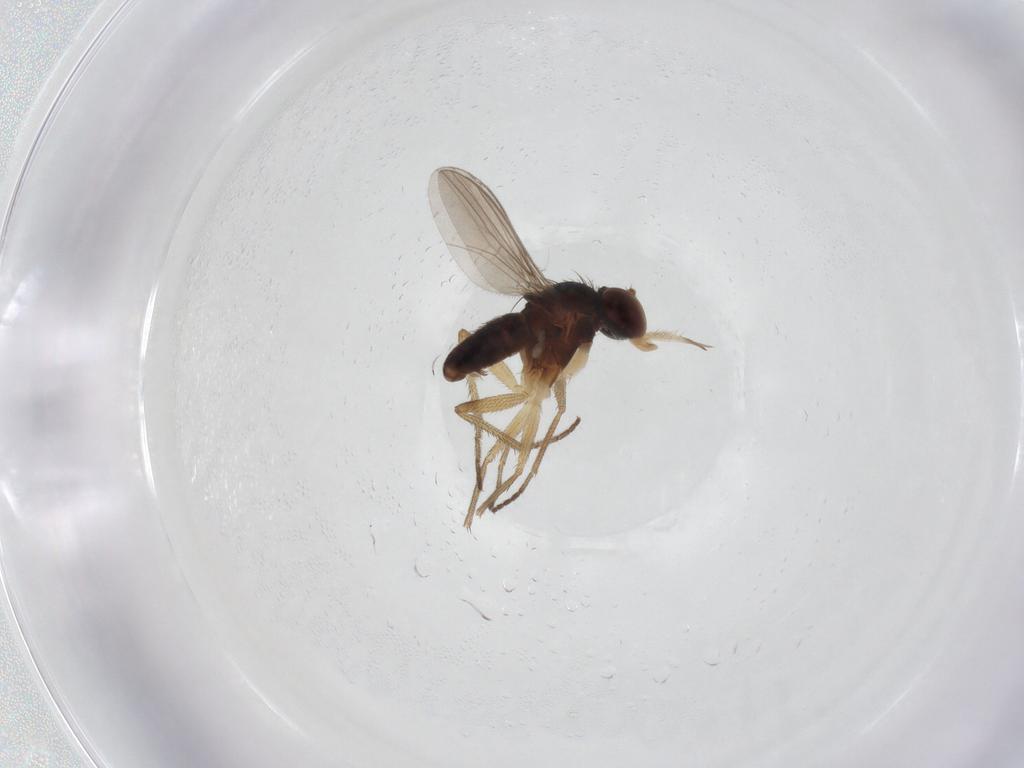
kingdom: Animalia
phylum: Arthropoda
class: Insecta
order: Diptera
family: Dolichopodidae
